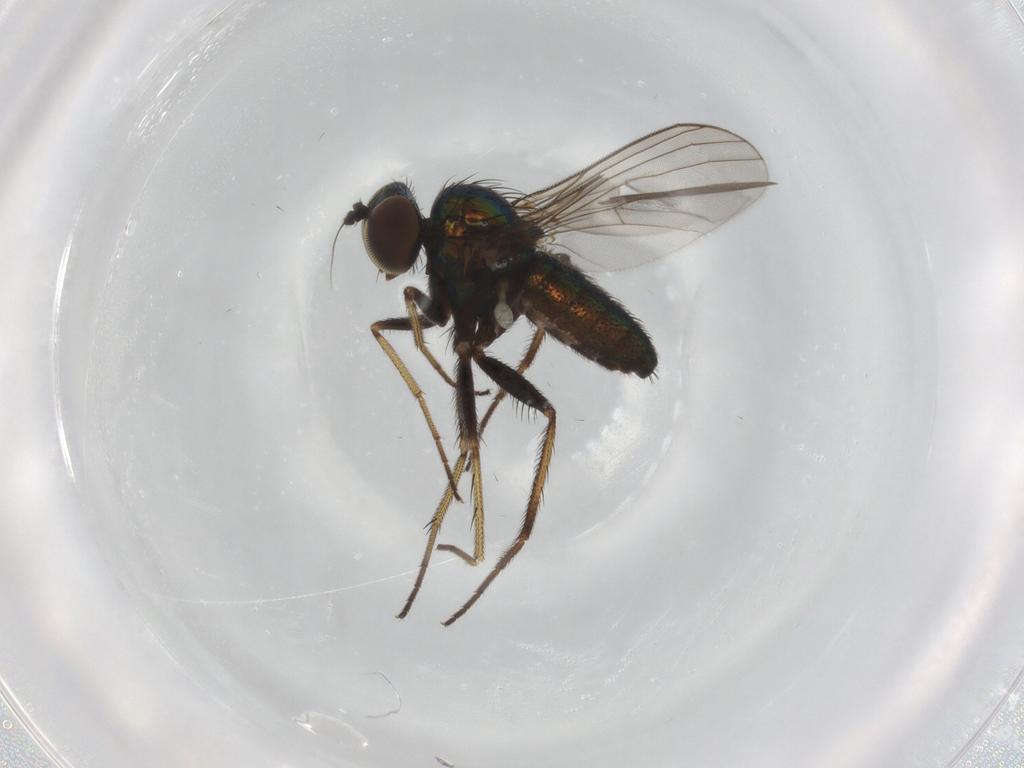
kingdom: Animalia
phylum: Arthropoda
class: Insecta
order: Diptera
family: Dolichopodidae
